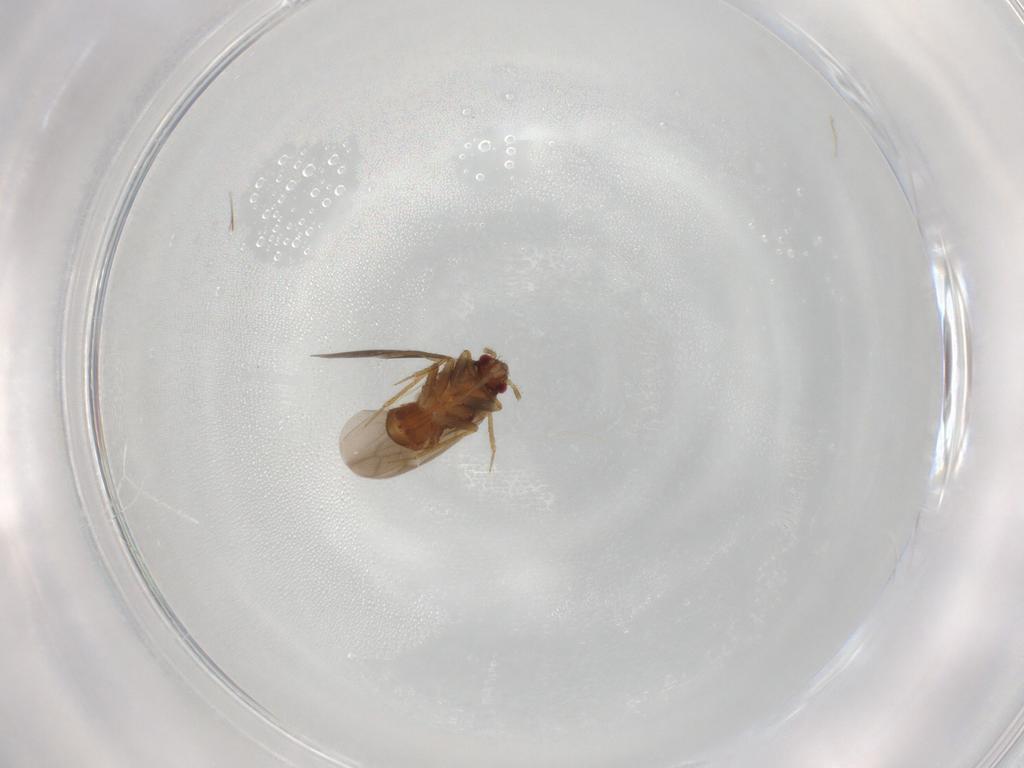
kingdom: Animalia
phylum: Arthropoda
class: Insecta
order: Hemiptera
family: Ceratocombidae
